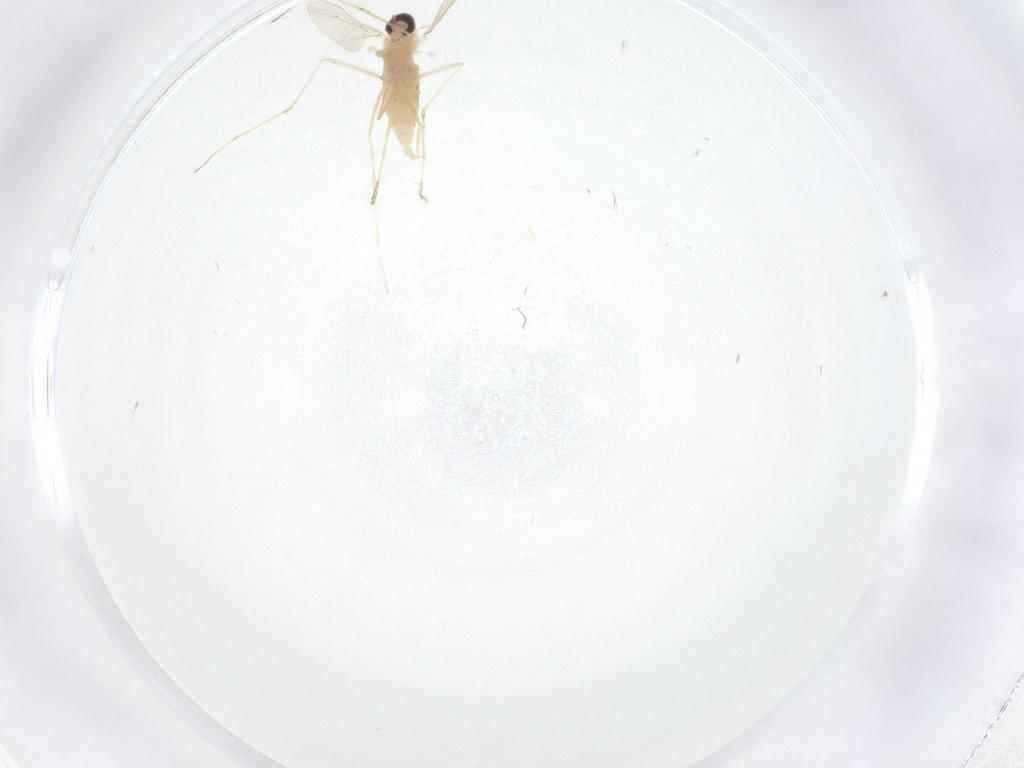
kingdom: Animalia
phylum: Arthropoda
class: Insecta
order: Diptera
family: Cecidomyiidae
